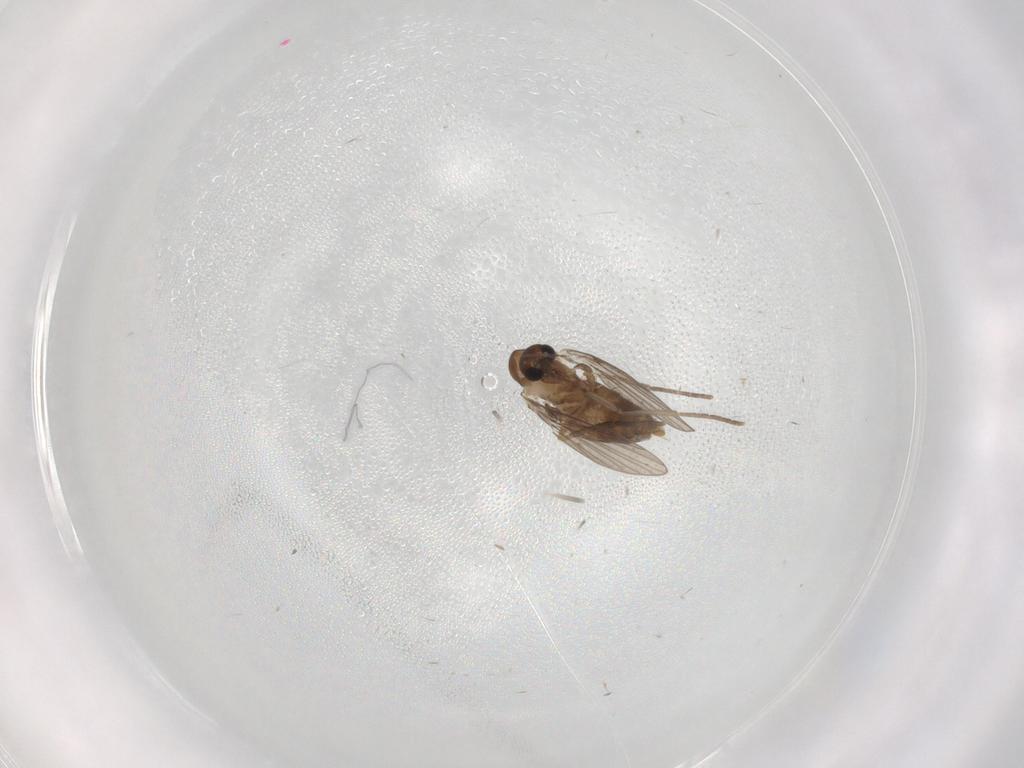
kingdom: Animalia
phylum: Arthropoda
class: Insecta
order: Diptera
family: Psychodidae
